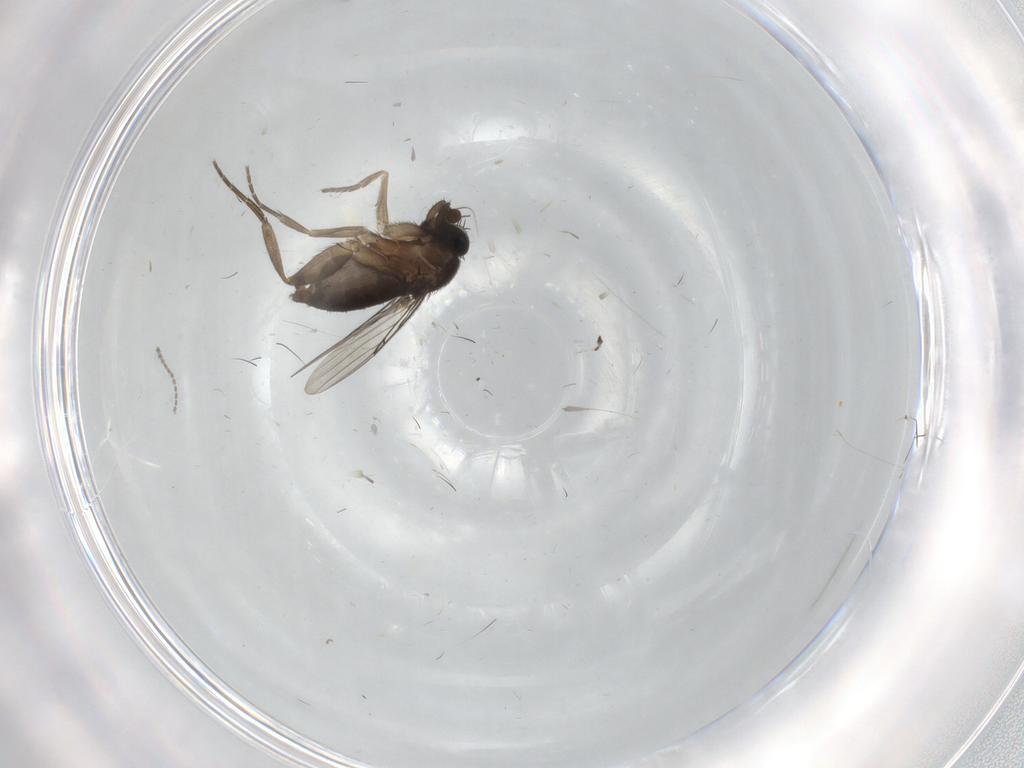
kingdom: Animalia
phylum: Arthropoda
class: Insecta
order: Diptera
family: Phoridae
